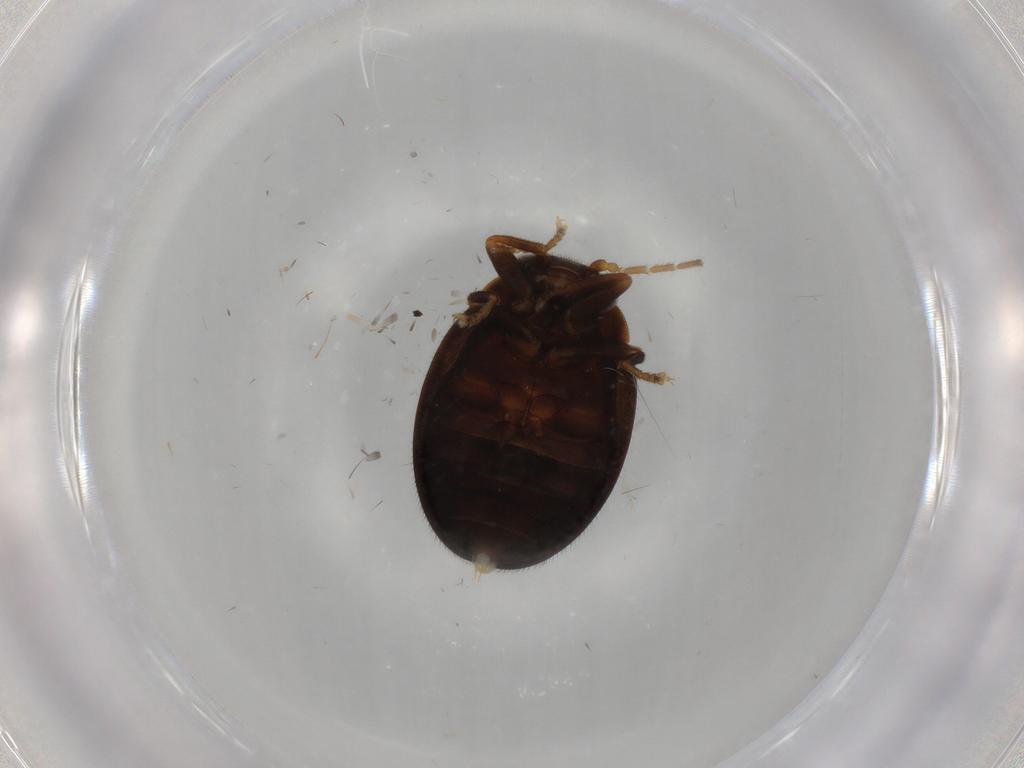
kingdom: Animalia
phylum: Arthropoda
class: Insecta
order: Coleoptera
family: Scirtidae
